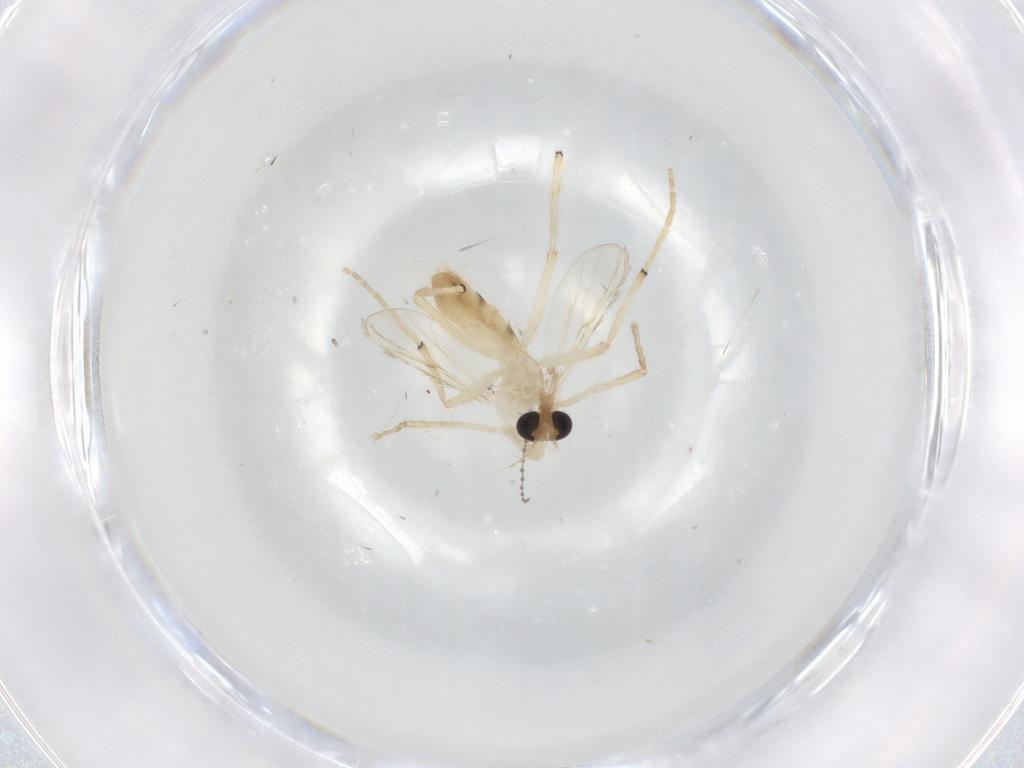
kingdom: Animalia
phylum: Arthropoda
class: Insecta
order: Diptera
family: Chironomidae
